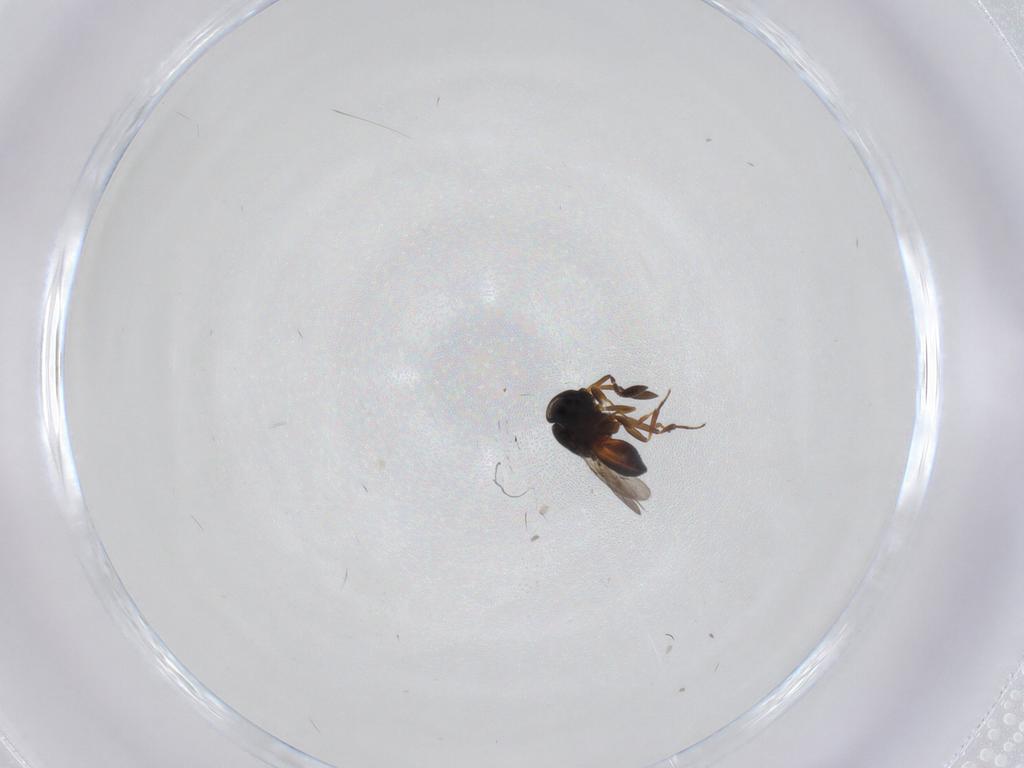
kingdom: Animalia
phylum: Arthropoda
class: Insecta
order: Hymenoptera
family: Scelionidae
